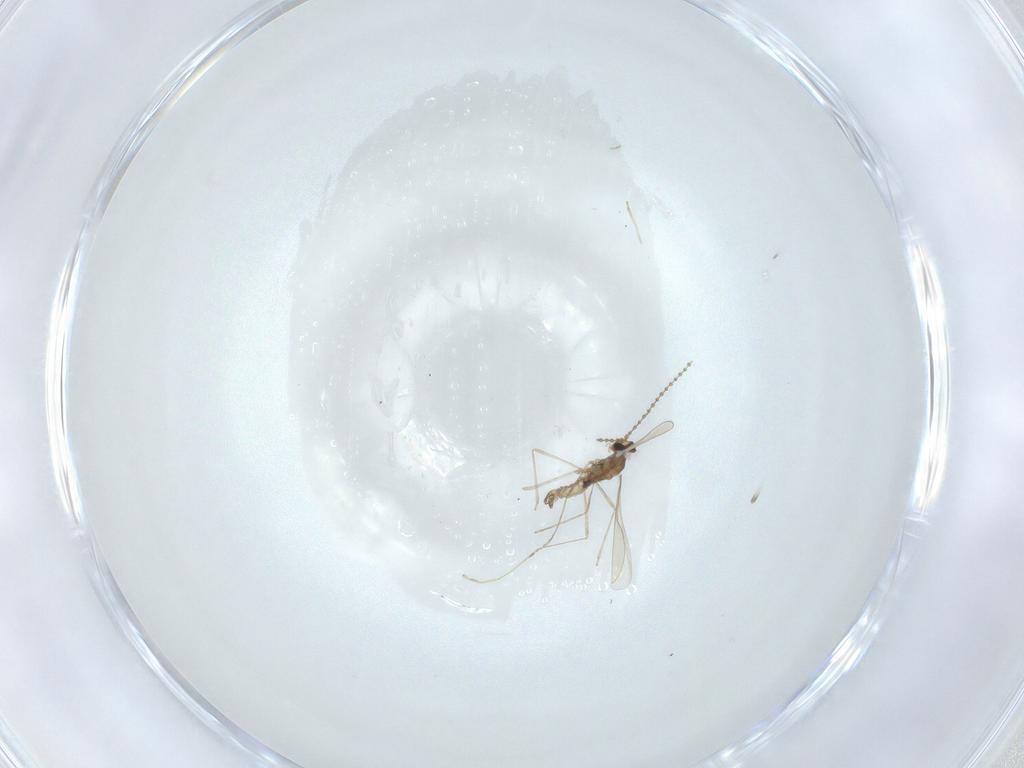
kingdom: Animalia
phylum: Arthropoda
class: Insecta
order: Diptera
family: Cecidomyiidae
